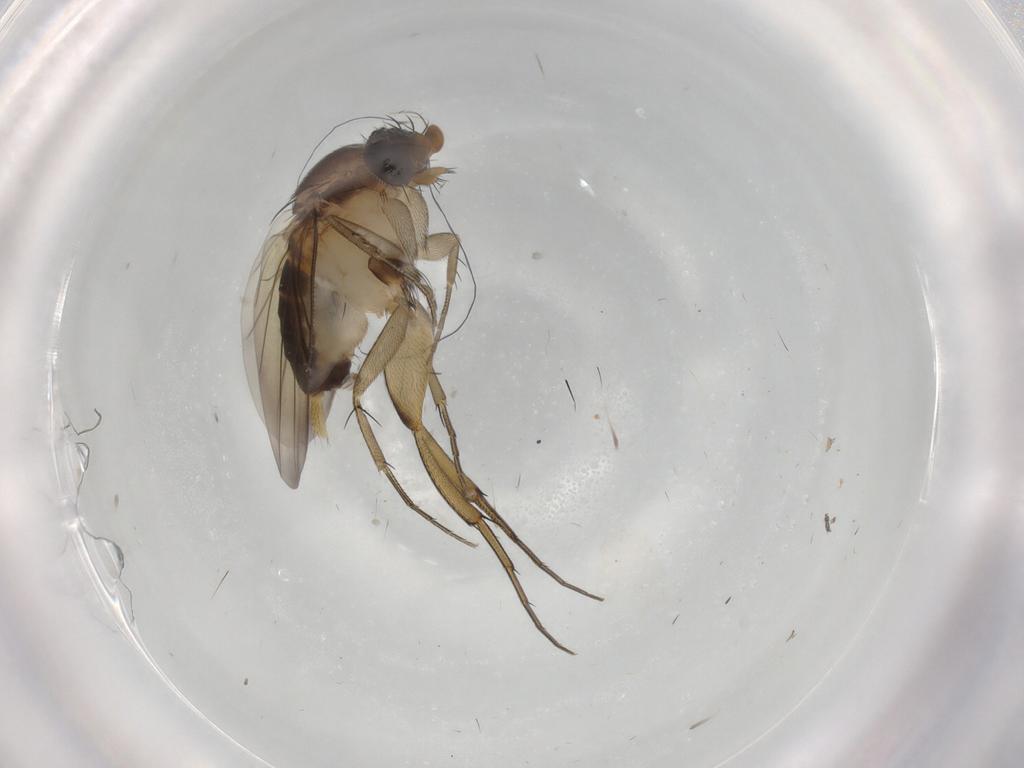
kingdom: Animalia
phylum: Arthropoda
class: Insecta
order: Diptera
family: Phoridae
